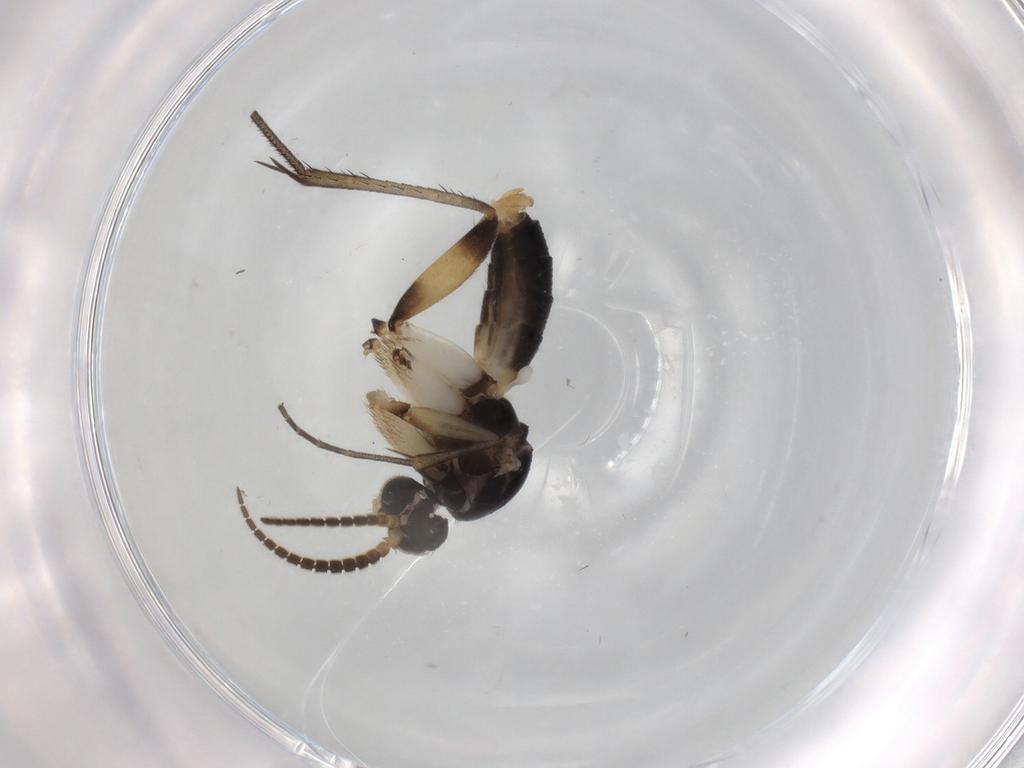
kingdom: Animalia
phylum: Arthropoda
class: Insecta
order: Diptera
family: Ceratopogonidae
